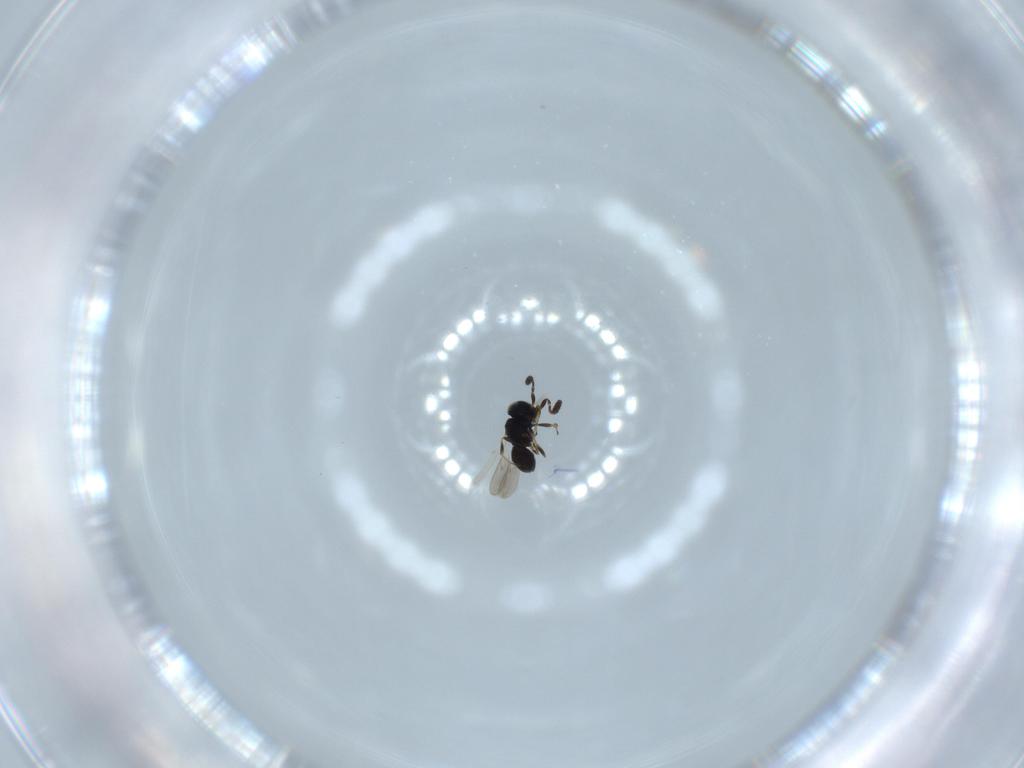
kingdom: Animalia
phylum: Arthropoda
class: Insecta
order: Hymenoptera
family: Scelionidae
